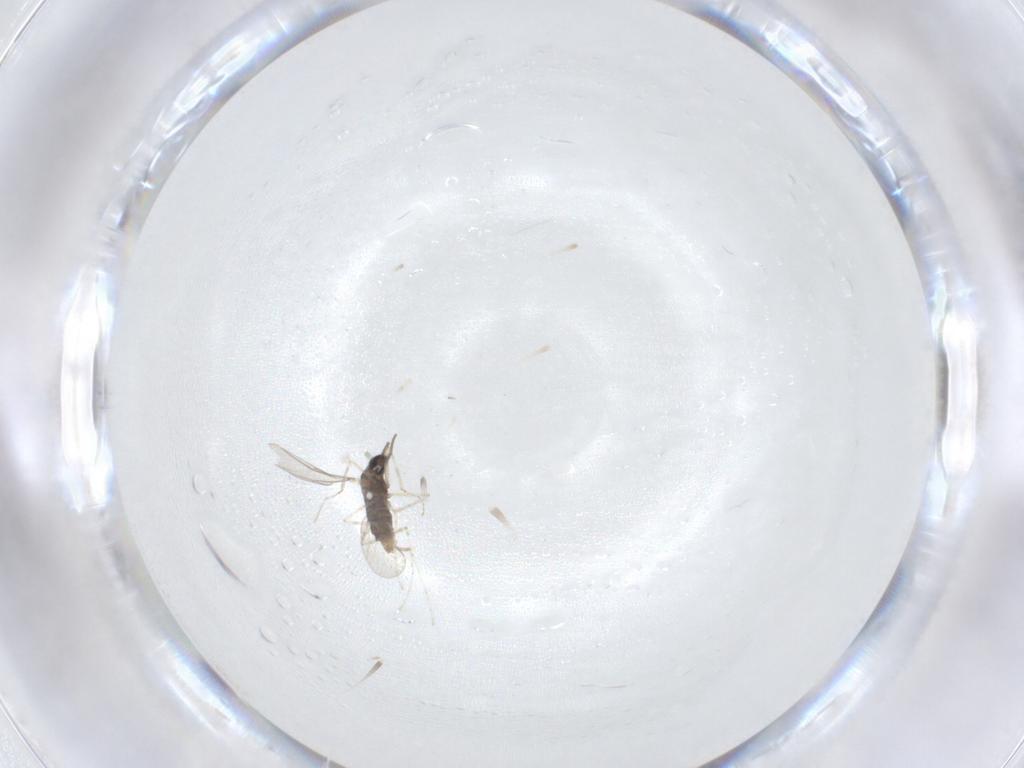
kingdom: Animalia
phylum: Arthropoda
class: Insecta
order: Diptera
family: Cecidomyiidae
